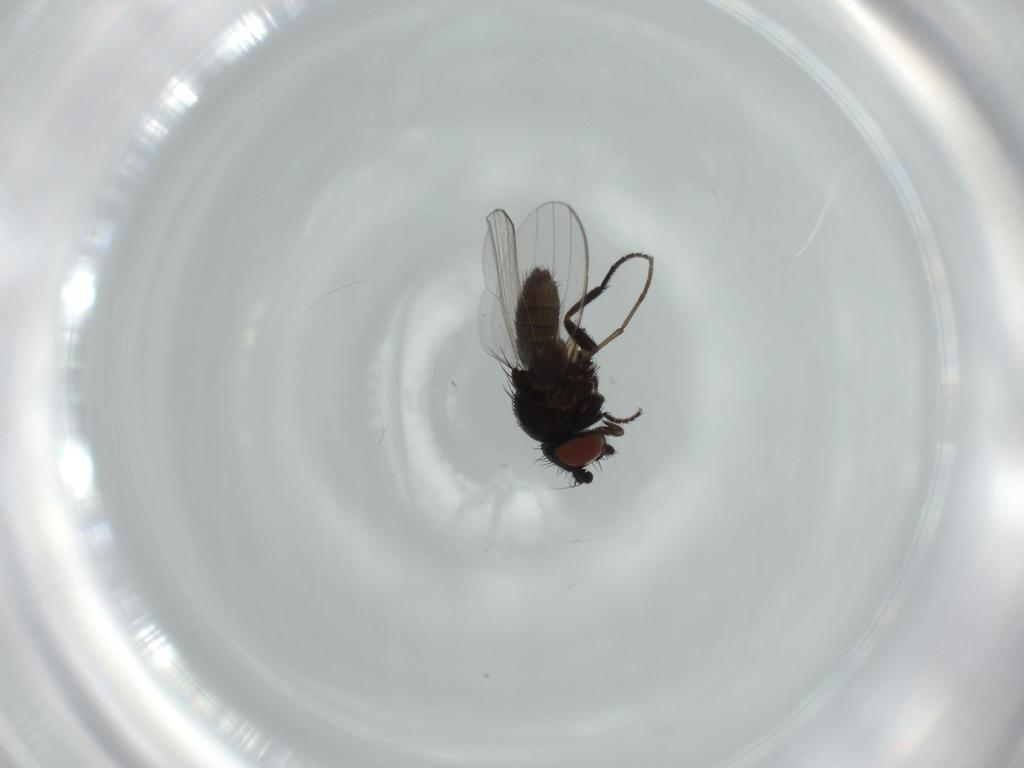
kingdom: Animalia
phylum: Arthropoda
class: Insecta
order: Diptera
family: Milichiidae
